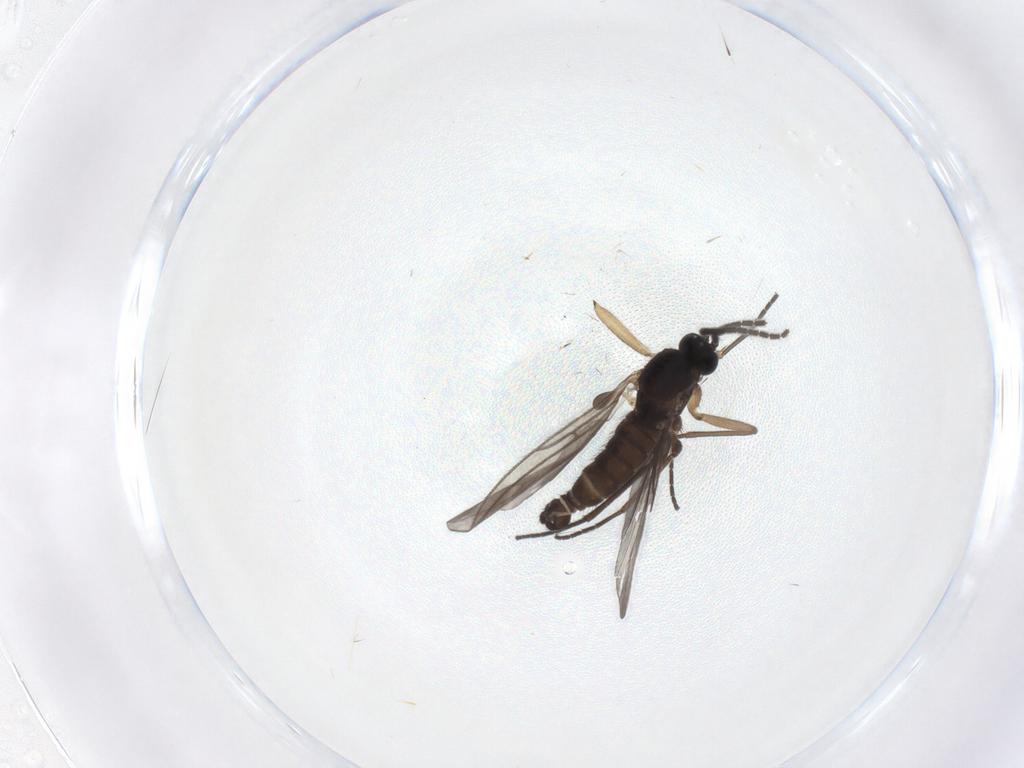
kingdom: Animalia
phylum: Arthropoda
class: Insecta
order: Diptera
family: Sciaridae
